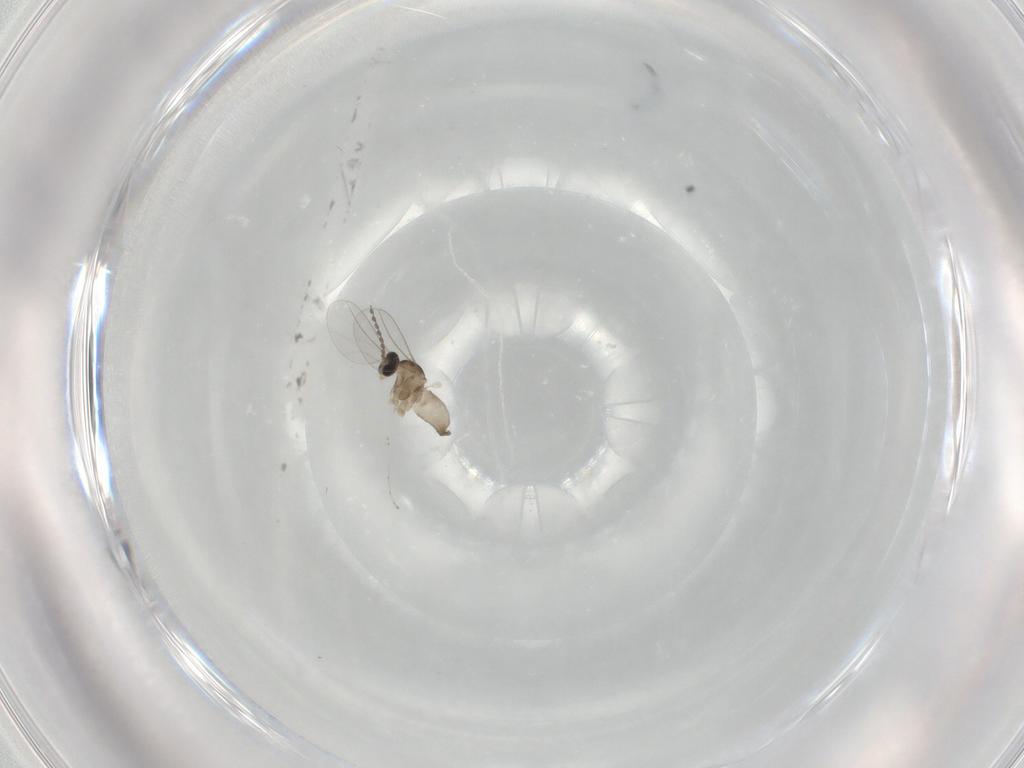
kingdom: Animalia
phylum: Arthropoda
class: Insecta
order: Diptera
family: Cecidomyiidae
